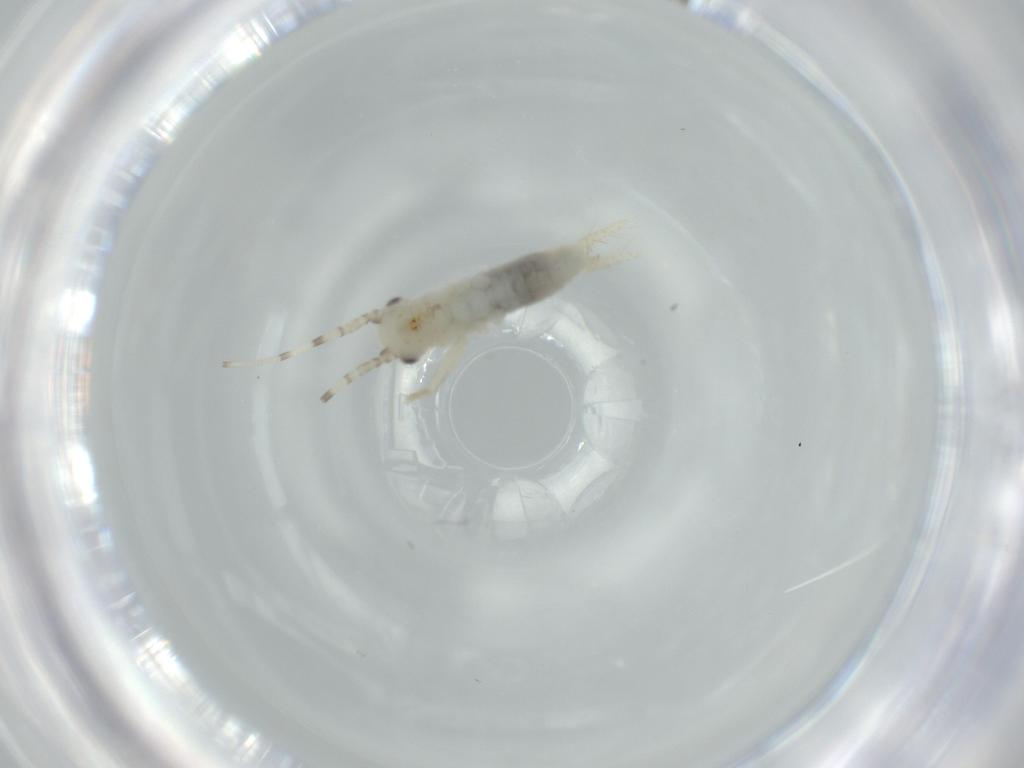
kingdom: Animalia
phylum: Arthropoda
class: Insecta
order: Orthoptera
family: Trigonidiidae
